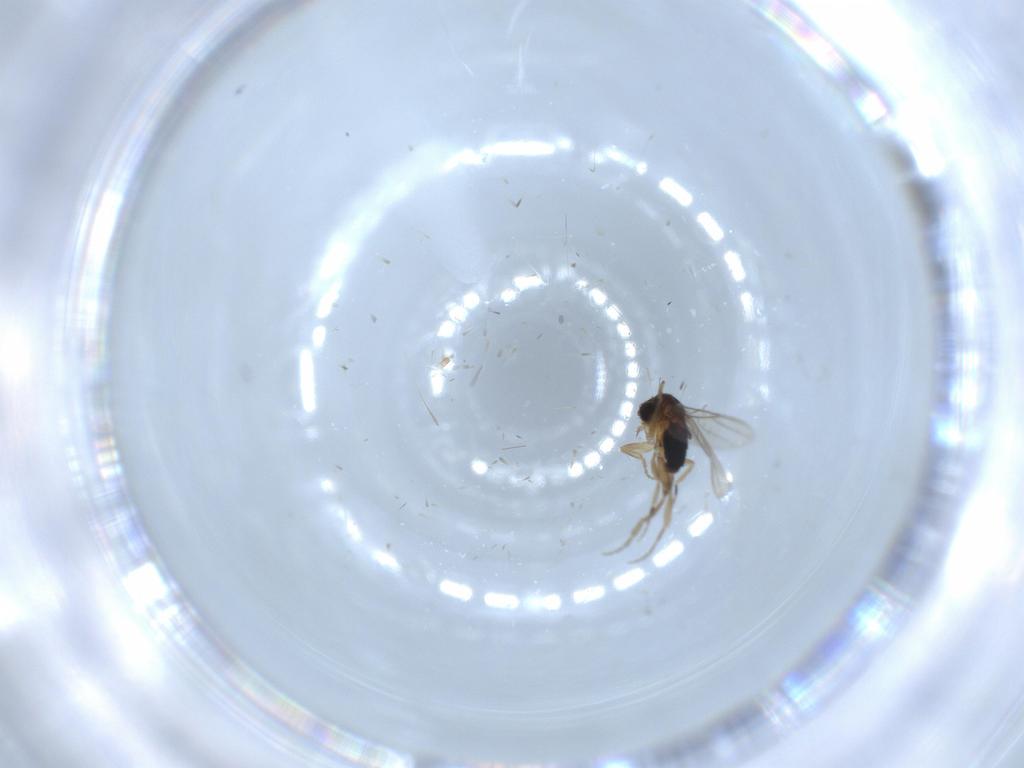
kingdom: Animalia
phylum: Arthropoda
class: Insecta
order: Diptera
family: Phoridae
